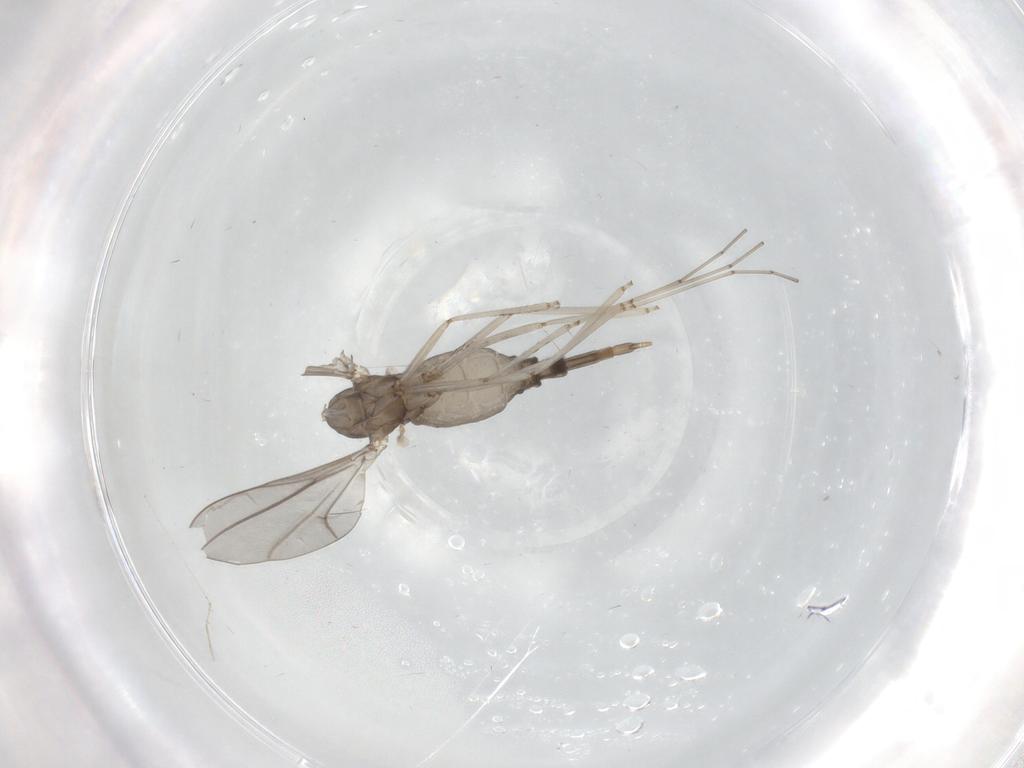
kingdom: Animalia
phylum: Arthropoda
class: Insecta
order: Diptera
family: Cecidomyiidae
